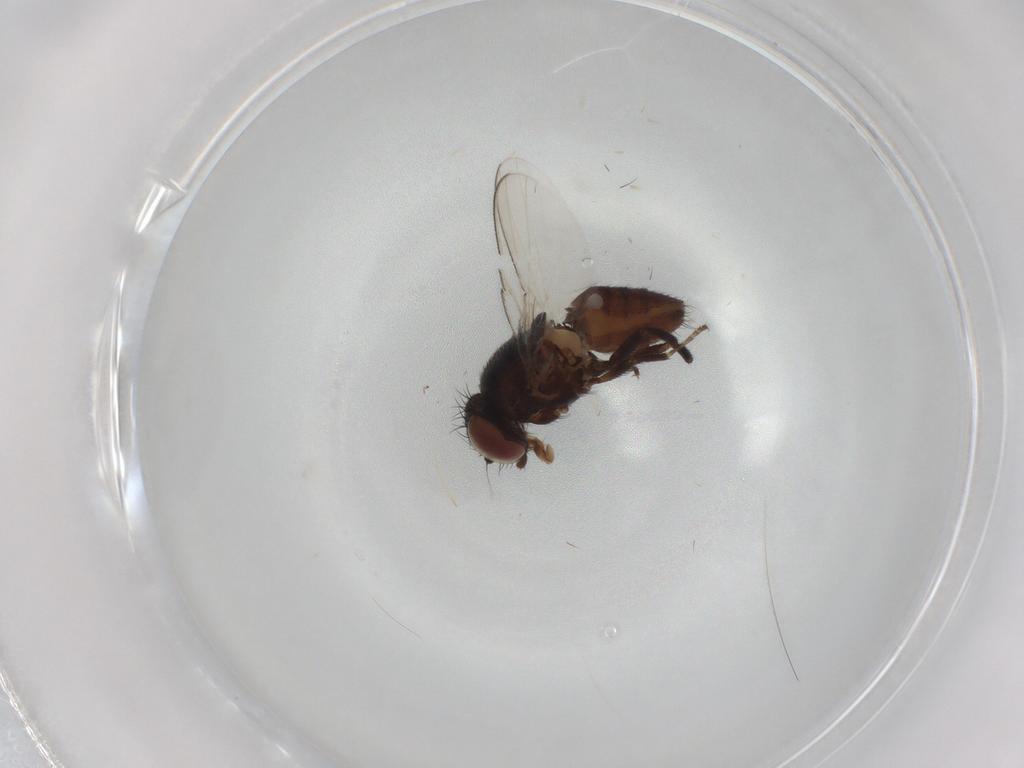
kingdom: Animalia
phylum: Arthropoda
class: Insecta
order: Diptera
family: Milichiidae
